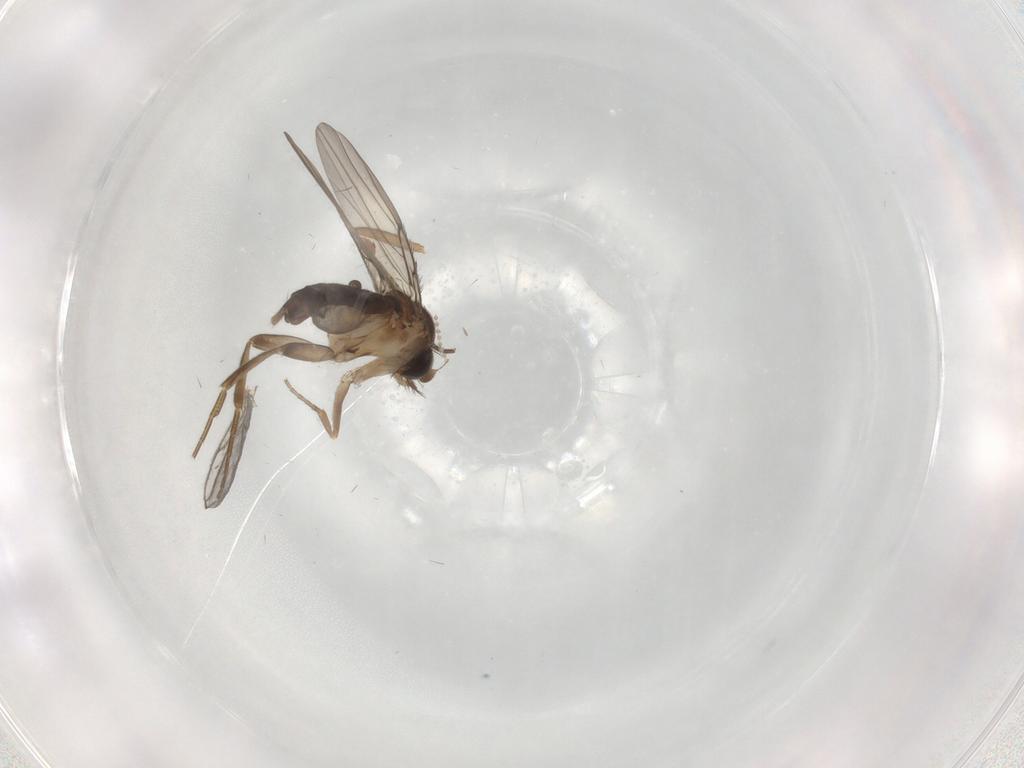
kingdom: Animalia
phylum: Arthropoda
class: Insecta
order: Diptera
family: Phoridae
